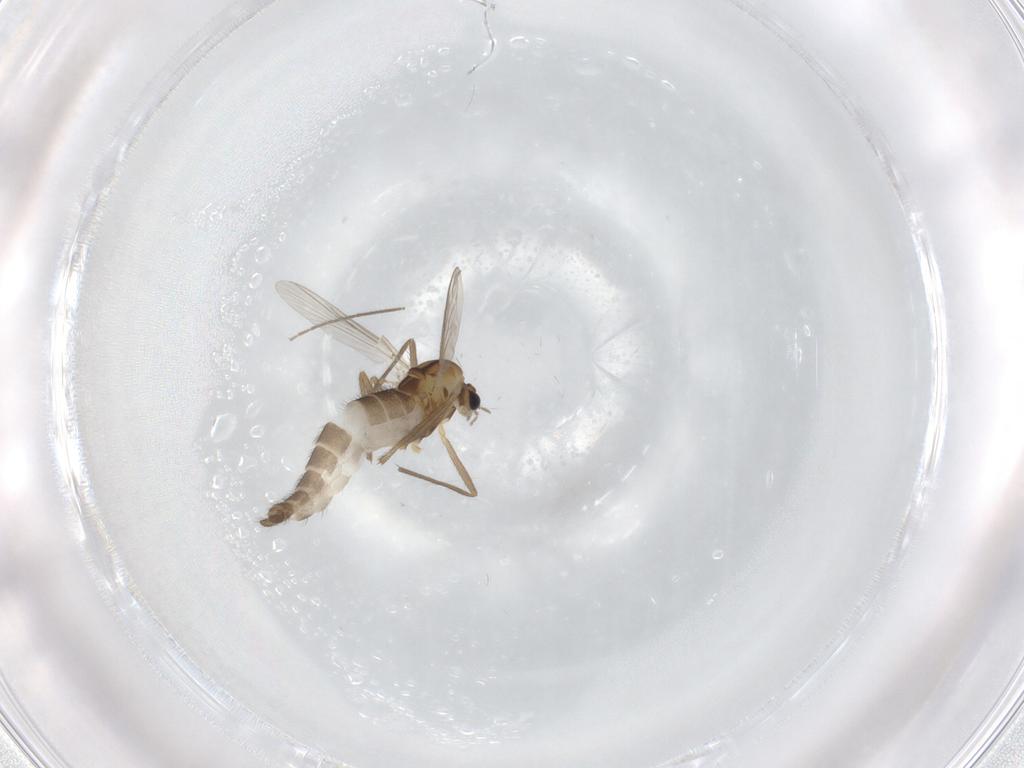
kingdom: Animalia
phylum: Arthropoda
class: Insecta
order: Diptera
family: Chironomidae
